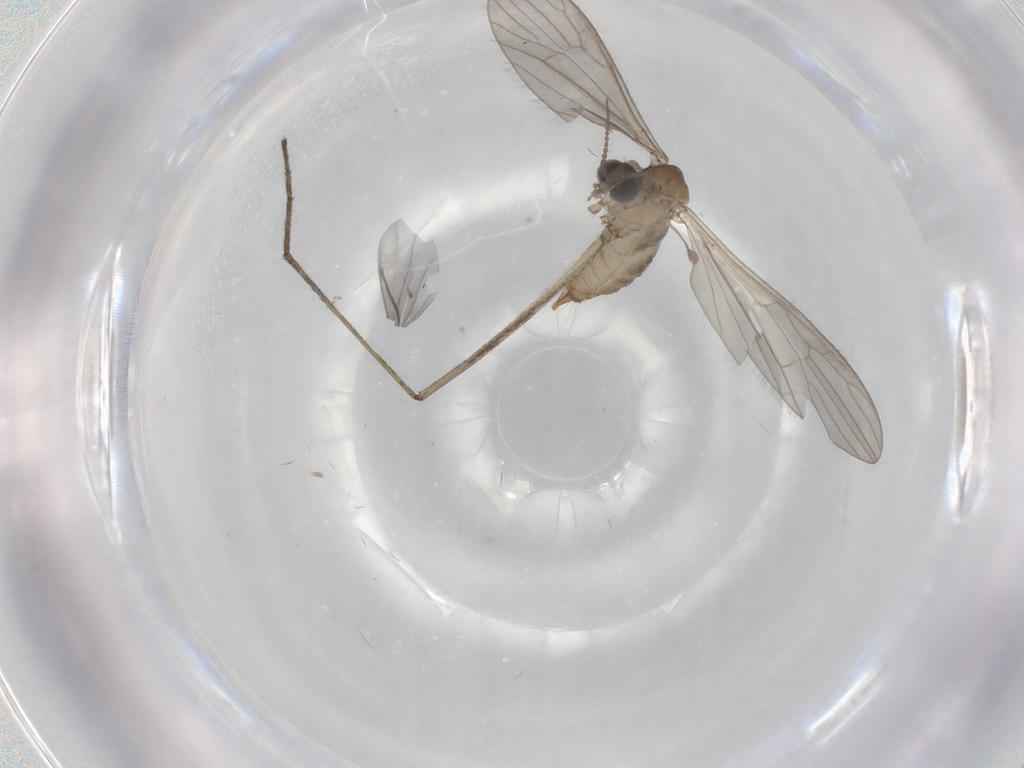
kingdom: Animalia
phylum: Arthropoda
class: Insecta
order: Diptera
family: Limoniidae
